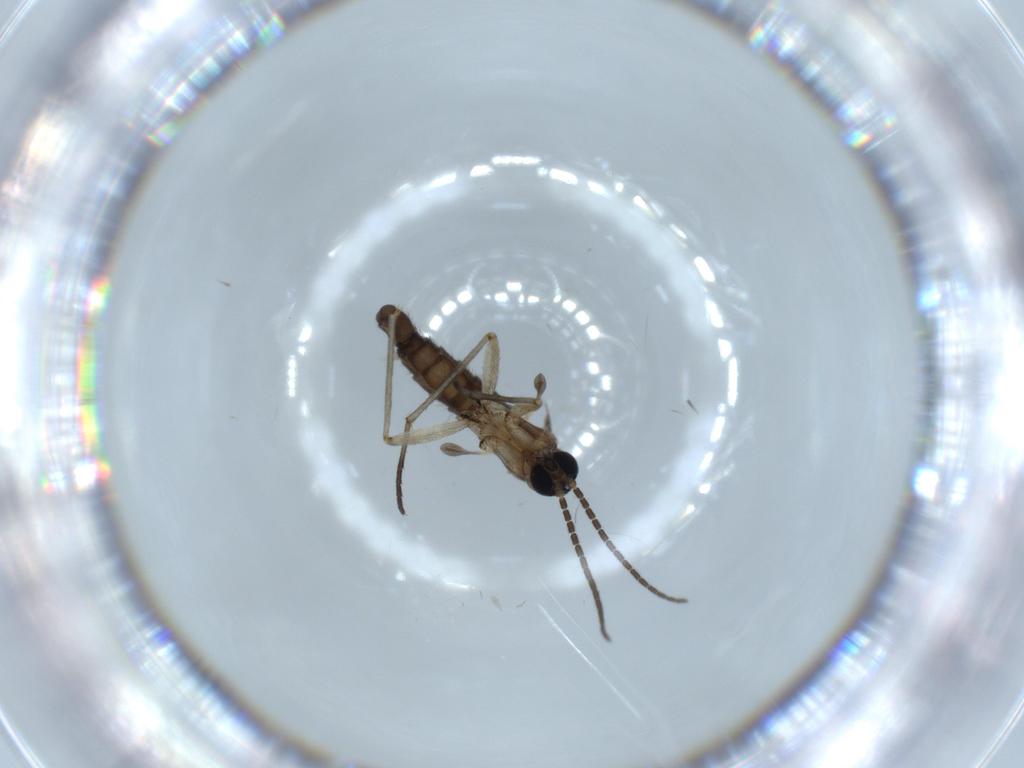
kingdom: Animalia
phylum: Arthropoda
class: Insecta
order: Diptera
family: Sciaridae
